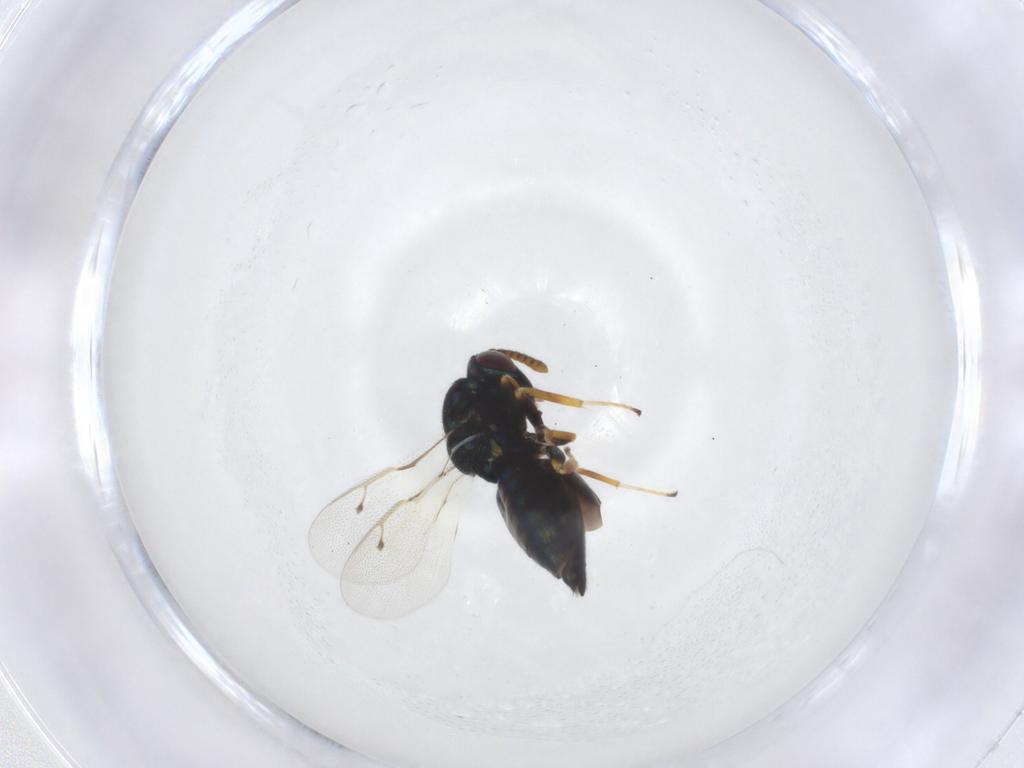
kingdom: Animalia
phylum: Arthropoda
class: Insecta
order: Hymenoptera
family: Pteromalidae
